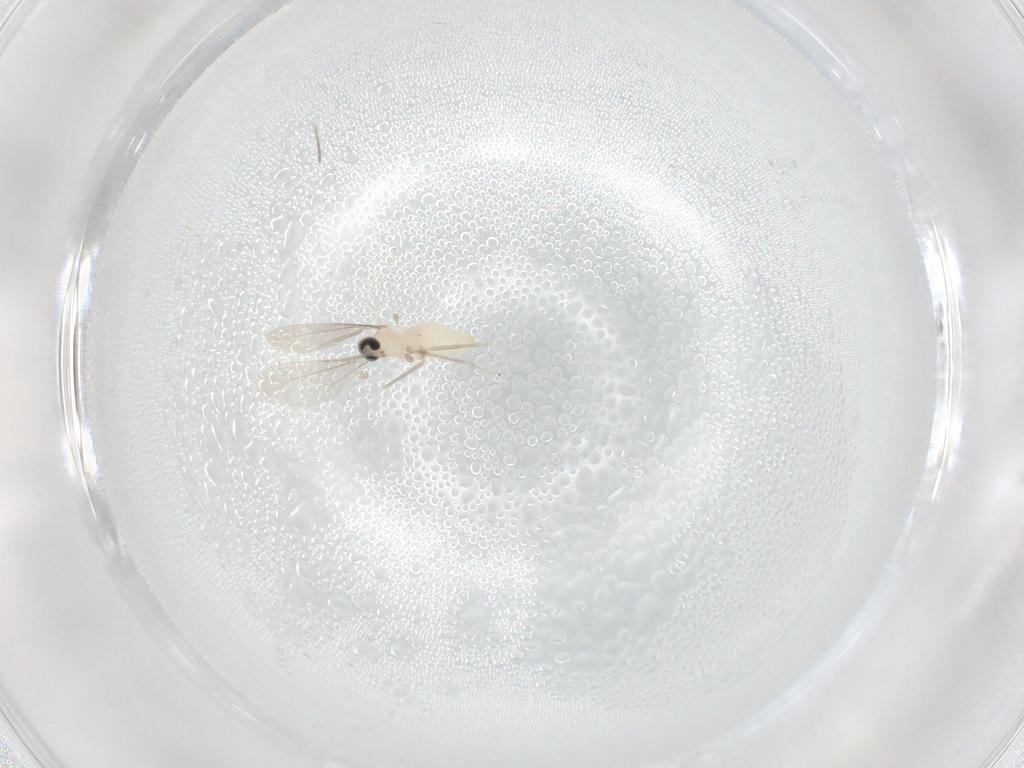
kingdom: Animalia
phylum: Arthropoda
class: Insecta
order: Diptera
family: Cecidomyiidae
